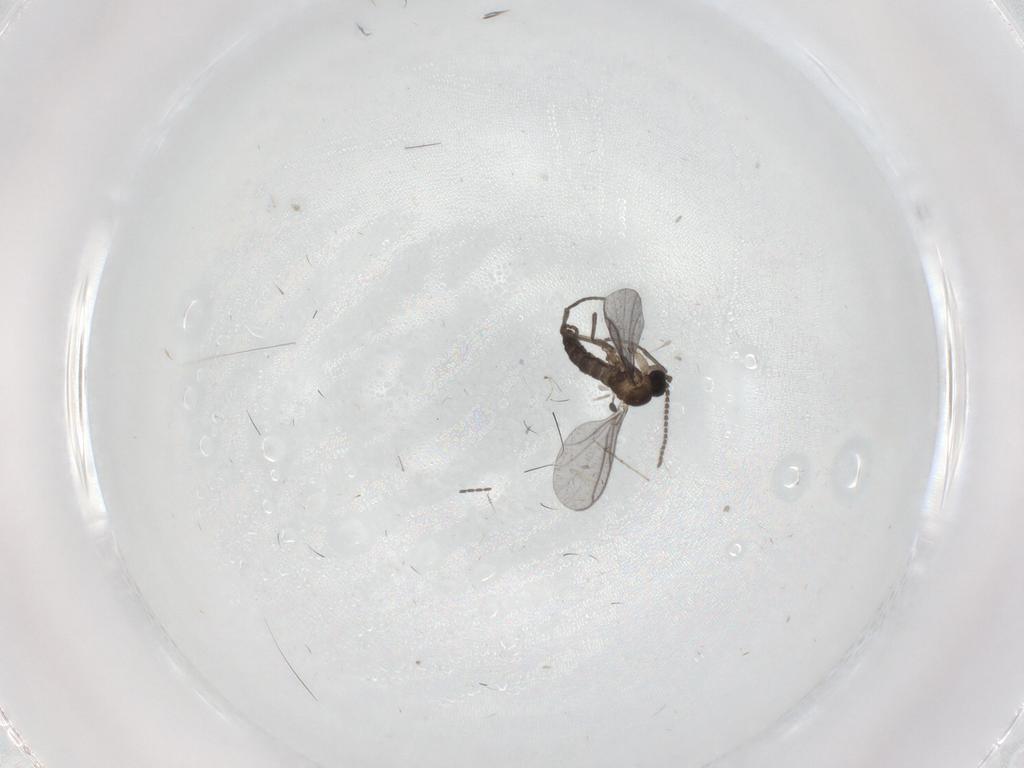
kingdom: Animalia
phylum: Arthropoda
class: Insecta
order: Diptera
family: Sciaridae
